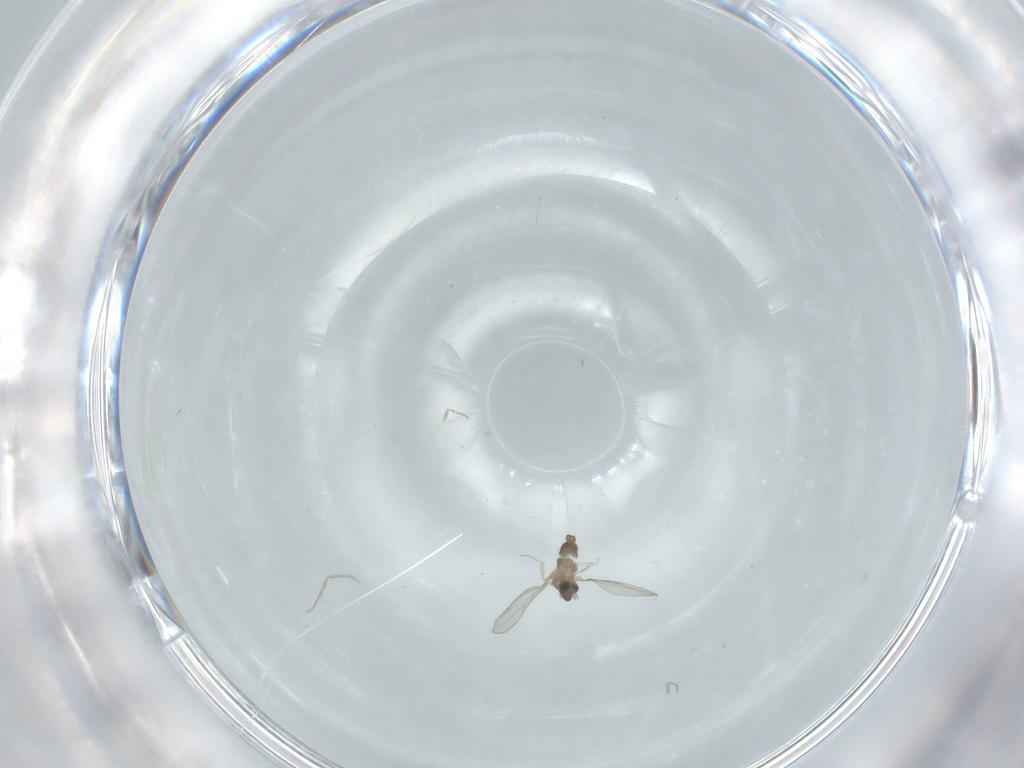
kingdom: Animalia
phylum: Arthropoda
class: Insecta
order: Diptera
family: Cecidomyiidae
